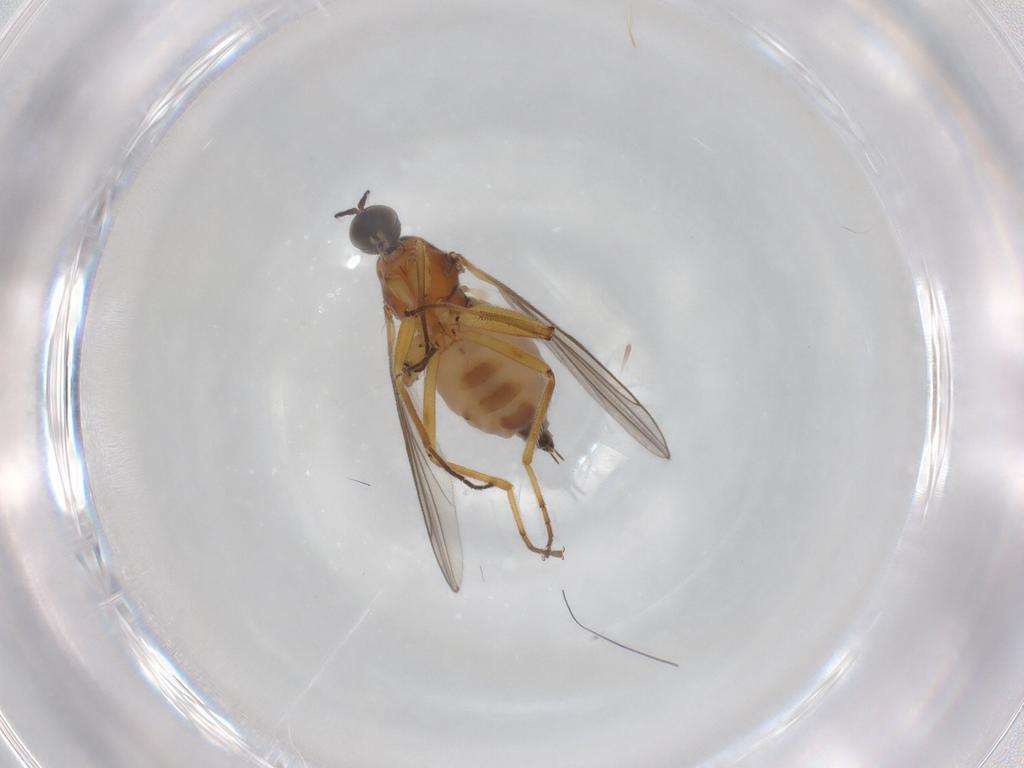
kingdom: Animalia
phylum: Arthropoda
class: Insecta
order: Diptera
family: Hybotidae
